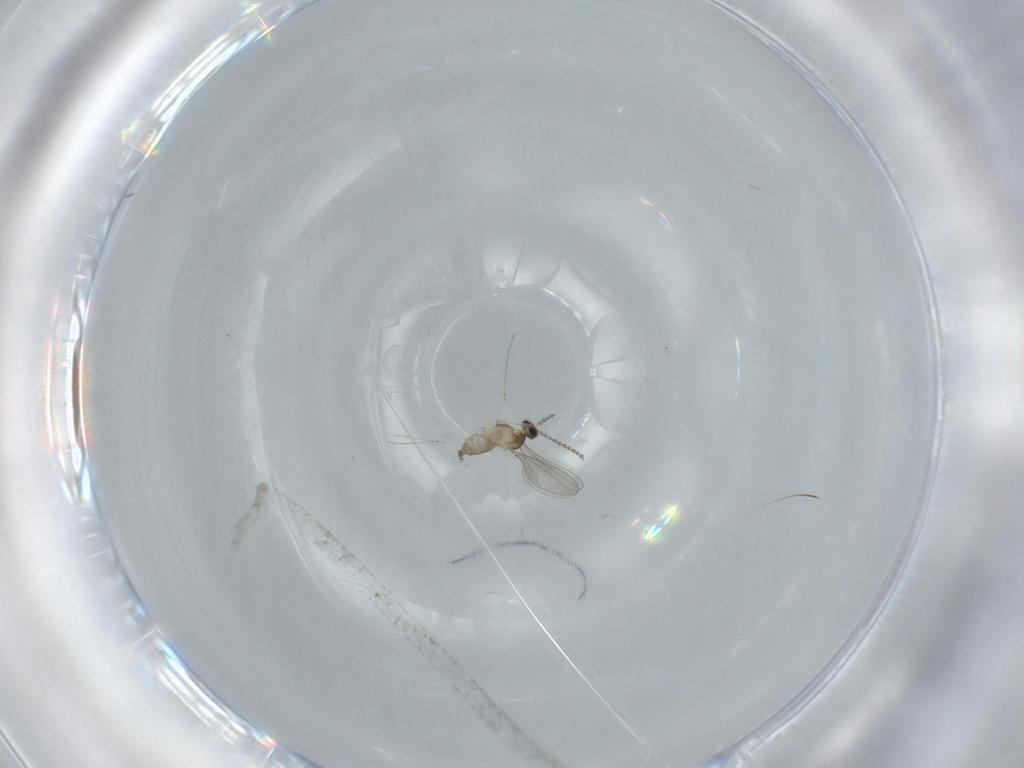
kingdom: Animalia
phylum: Arthropoda
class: Insecta
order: Diptera
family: Cecidomyiidae
